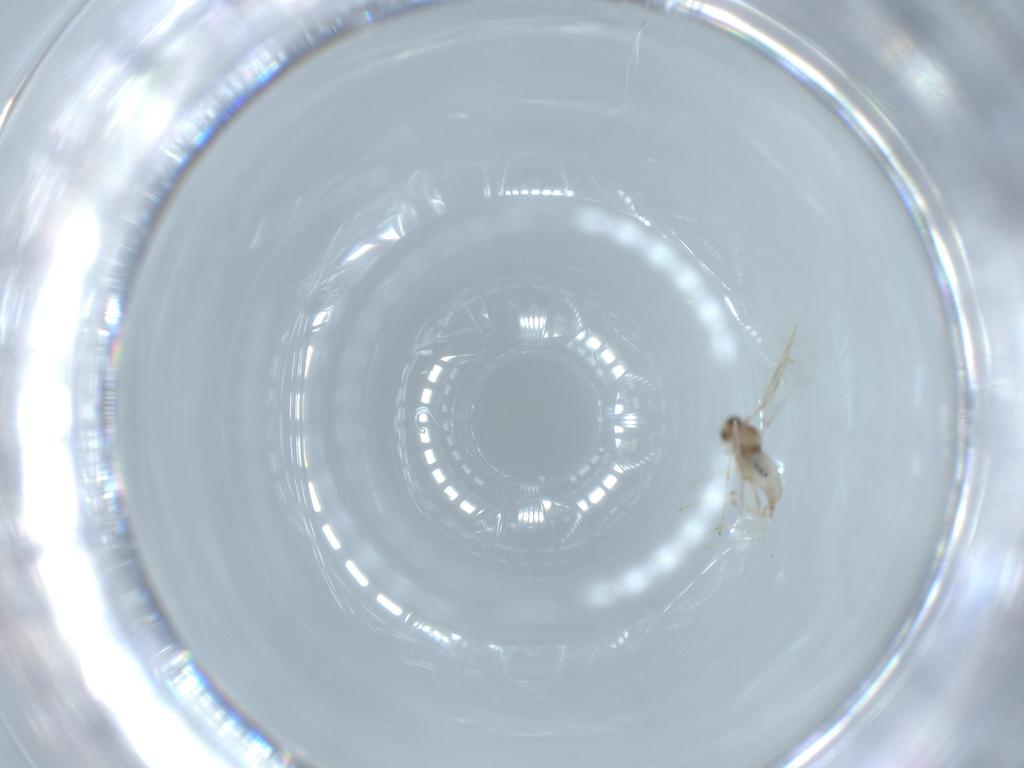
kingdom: Animalia
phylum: Arthropoda
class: Insecta
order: Diptera
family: Cecidomyiidae
